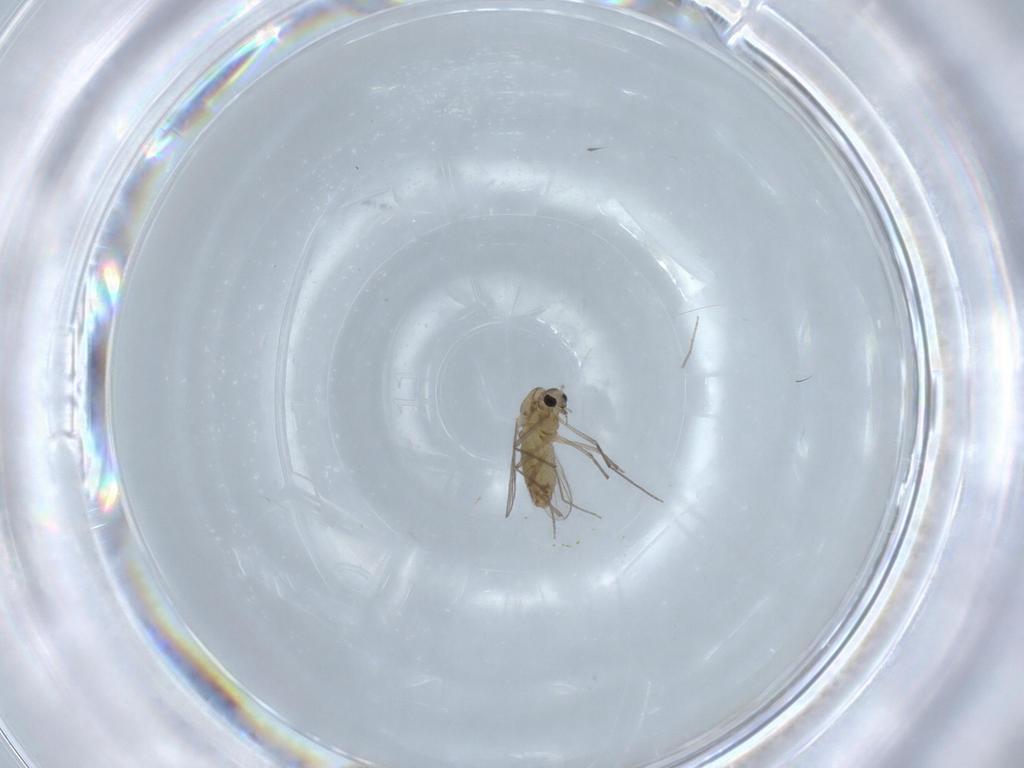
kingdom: Animalia
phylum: Arthropoda
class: Insecta
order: Diptera
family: Chironomidae
